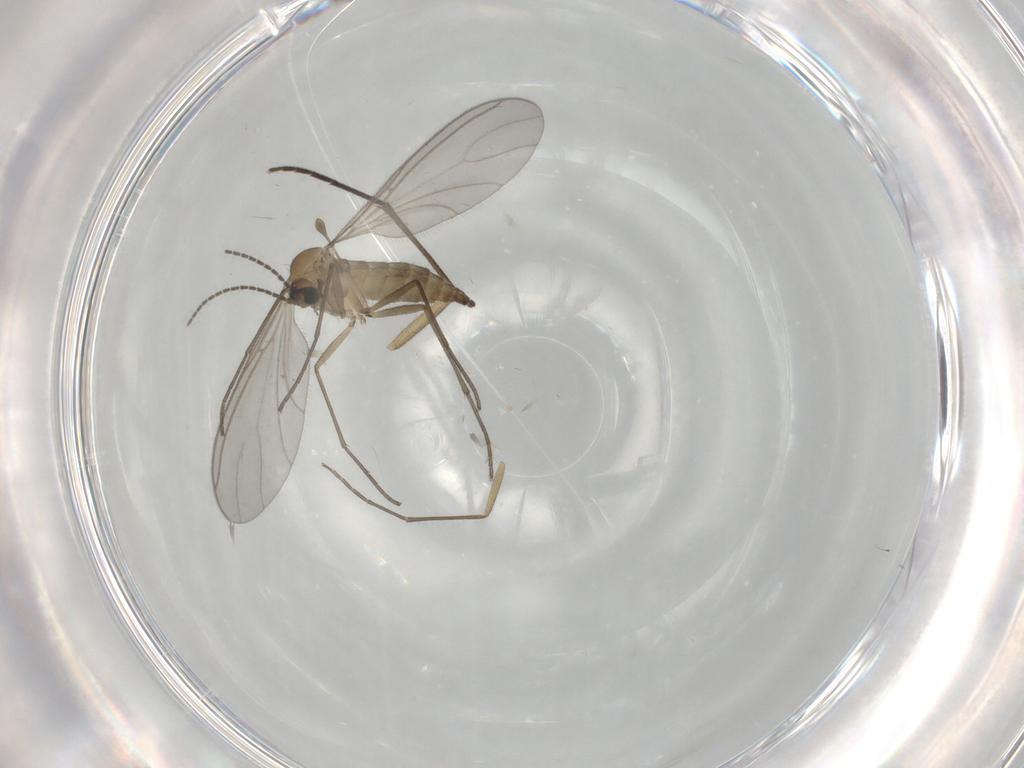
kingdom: Animalia
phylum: Arthropoda
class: Insecta
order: Diptera
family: Sciaridae
